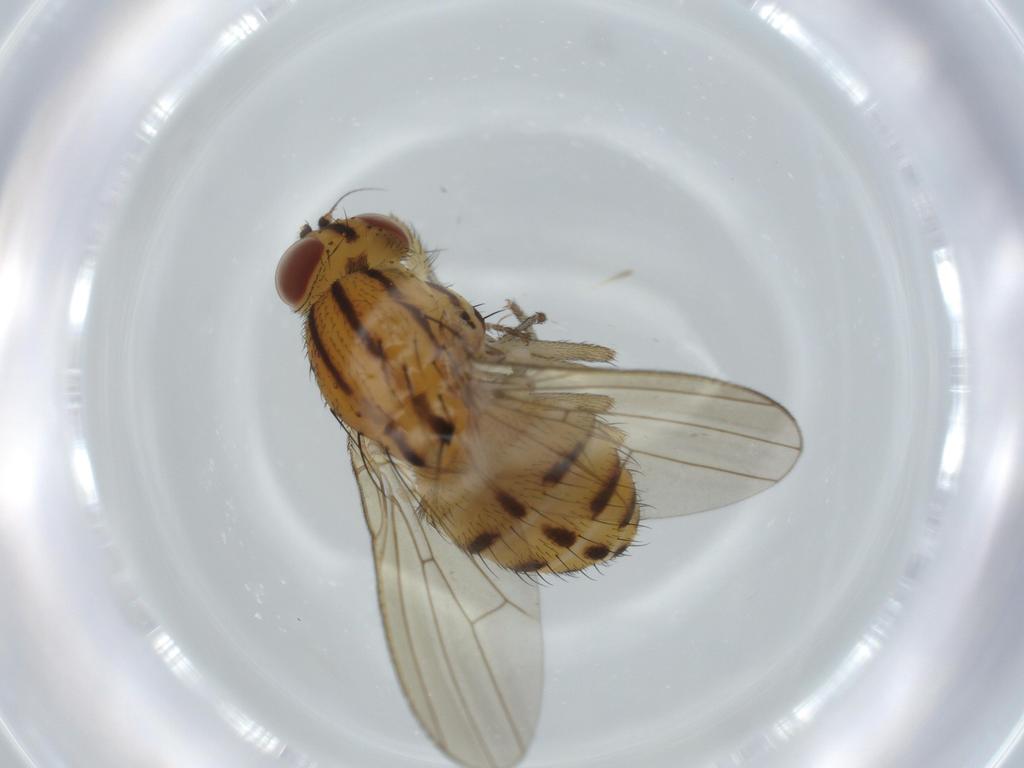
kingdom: Animalia
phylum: Arthropoda
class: Insecta
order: Diptera
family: Lauxaniidae
